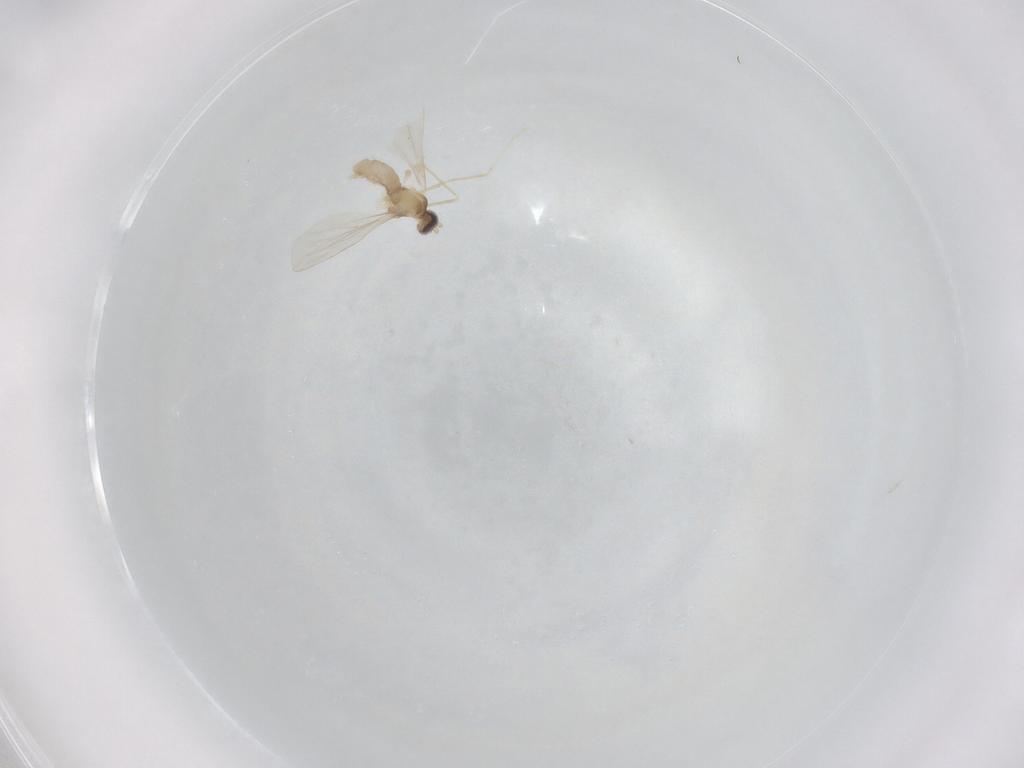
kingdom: Animalia
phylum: Arthropoda
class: Insecta
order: Diptera
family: Cecidomyiidae
